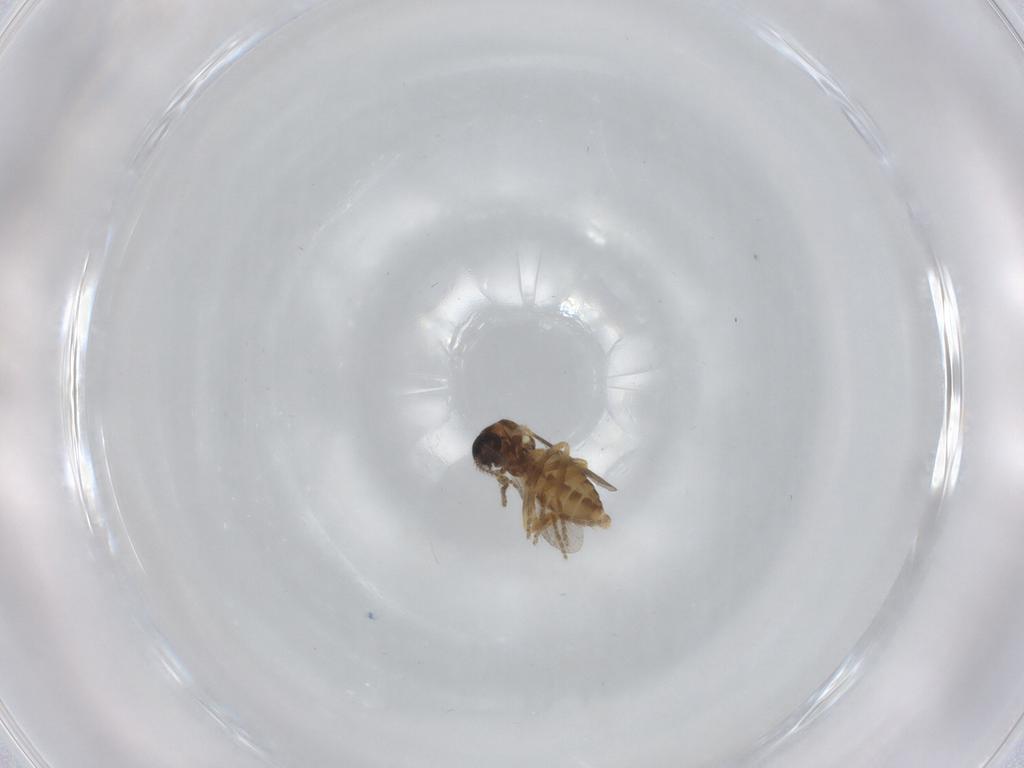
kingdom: Animalia
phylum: Arthropoda
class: Insecta
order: Diptera
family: Ceratopogonidae
